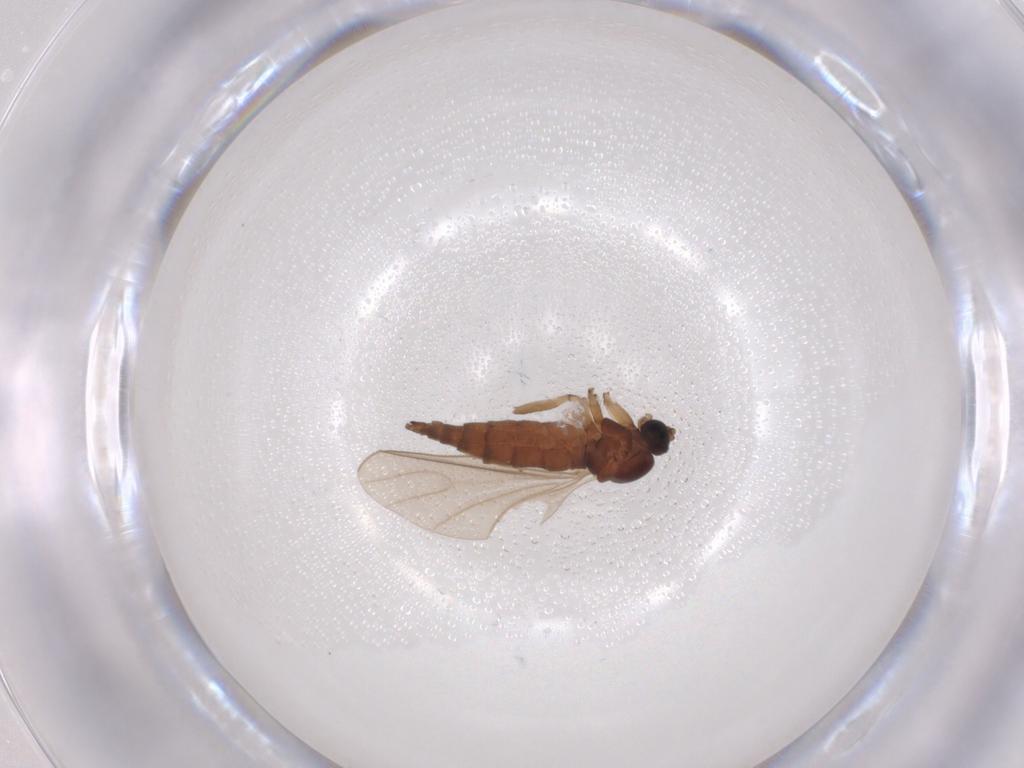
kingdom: Animalia
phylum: Arthropoda
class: Insecta
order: Diptera
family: Sciaridae
